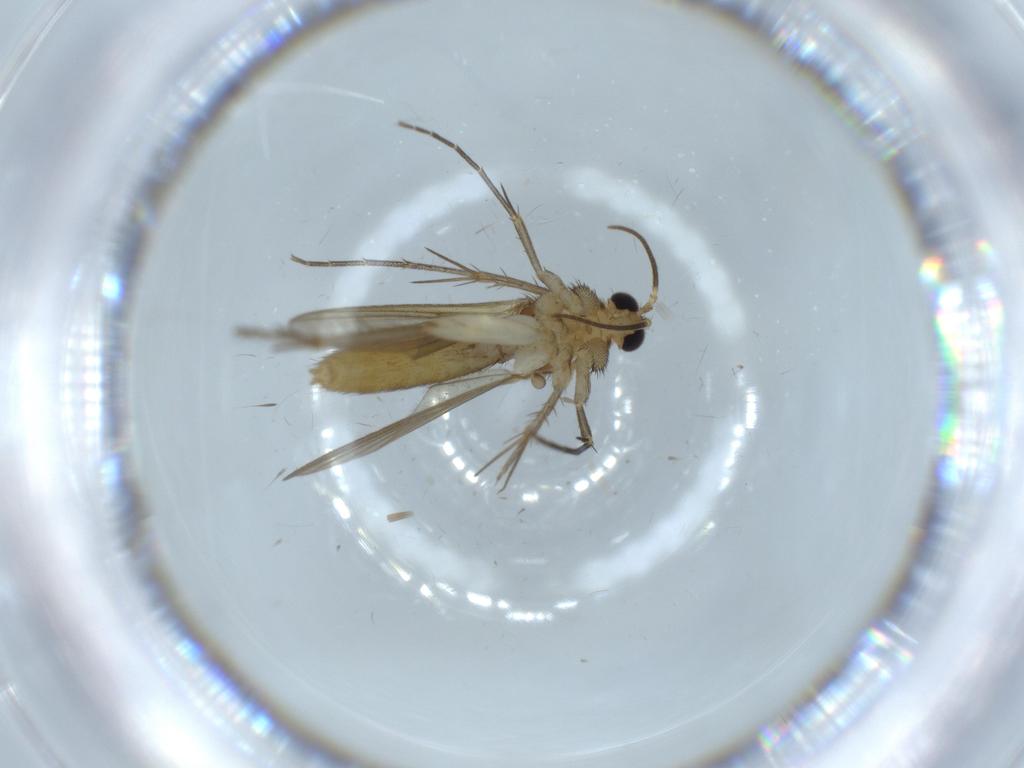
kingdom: Animalia
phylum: Arthropoda
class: Insecta
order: Diptera
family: Mycetophilidae
